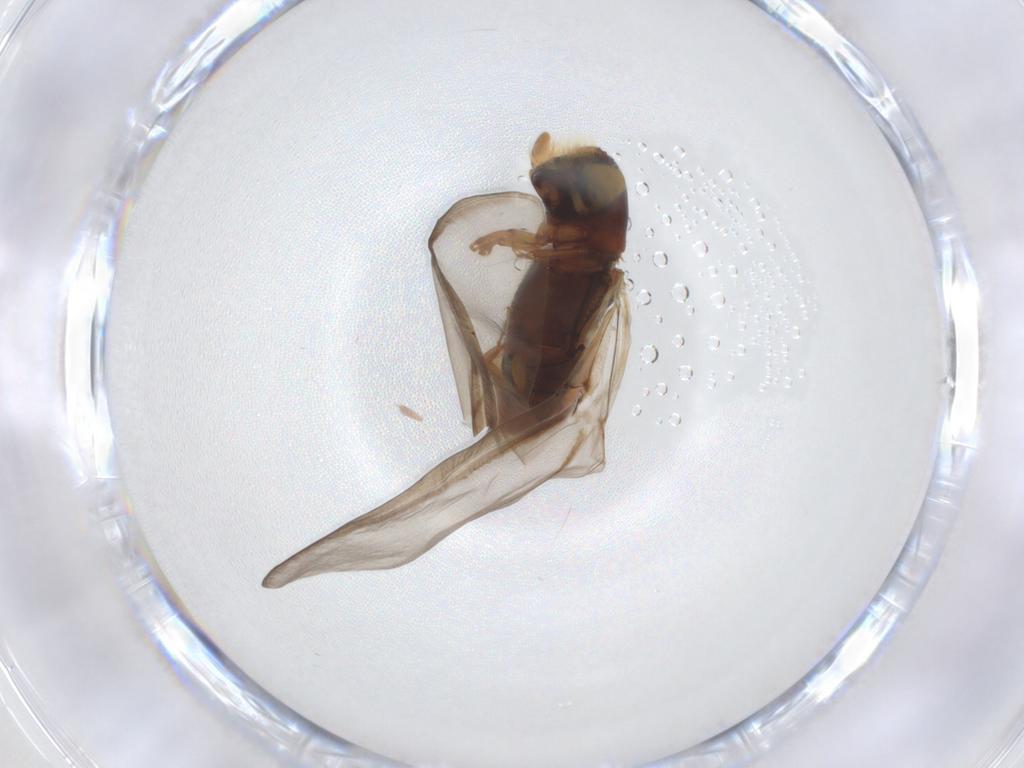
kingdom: Animalia
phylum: Arthropoda
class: Insecta
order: Coleoptera
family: Curculionidae
